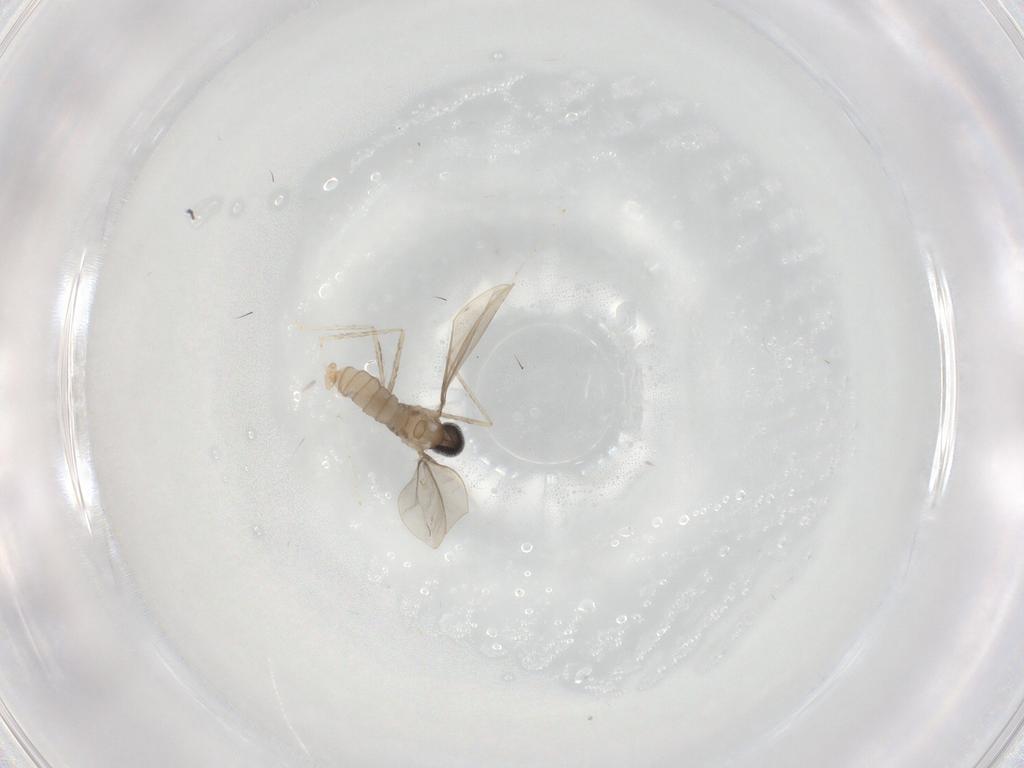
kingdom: Animalia
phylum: Arthropoda
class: Insecta
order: Diptera
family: Cecidomyiidae
